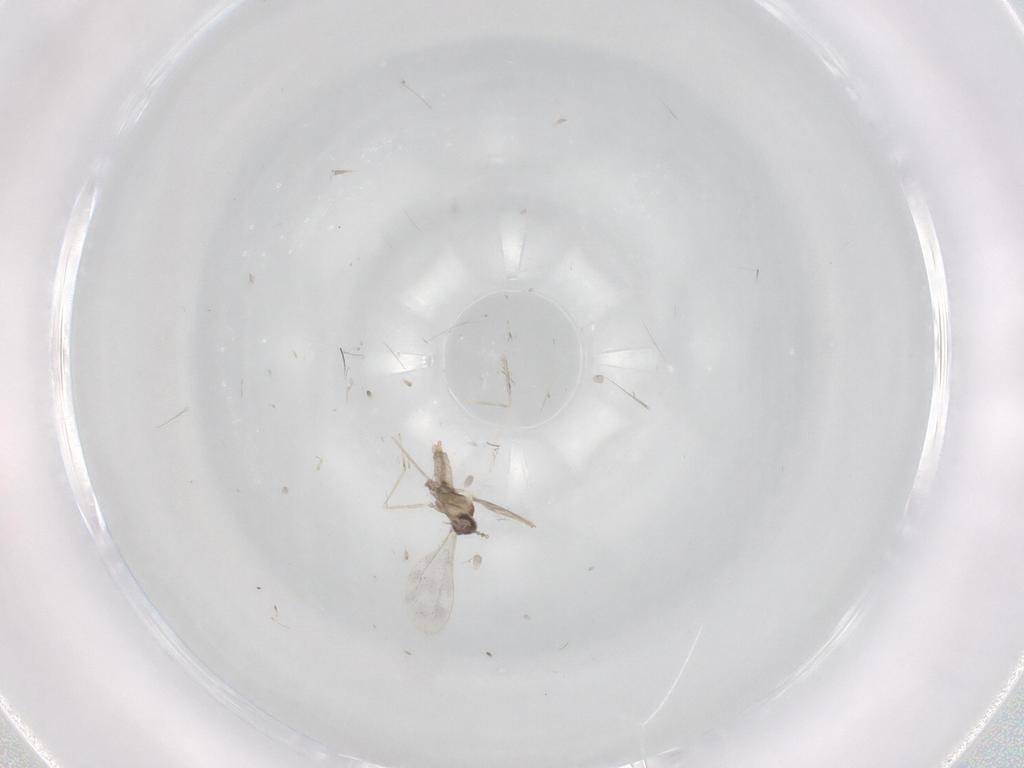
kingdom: Animalia
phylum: Arthropoda
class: Insecta
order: Diptera
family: Cecidomyiidae
